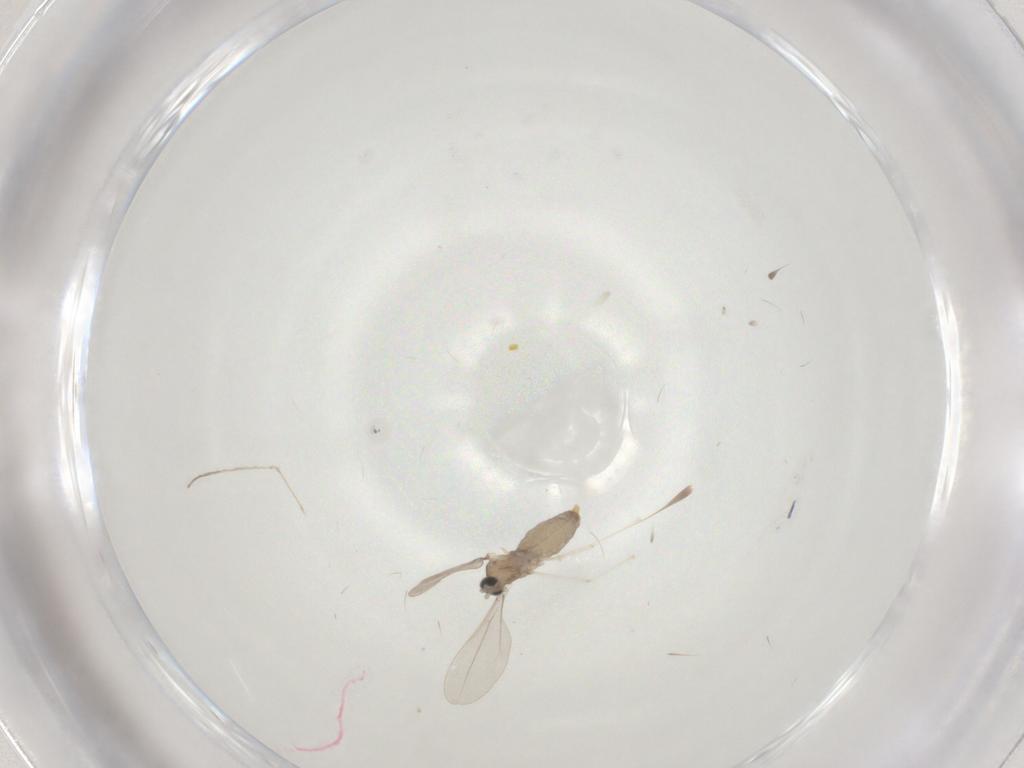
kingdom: Animalia
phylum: Arthropoda
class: Insecta
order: Diptera
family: Cecidomyiidae
